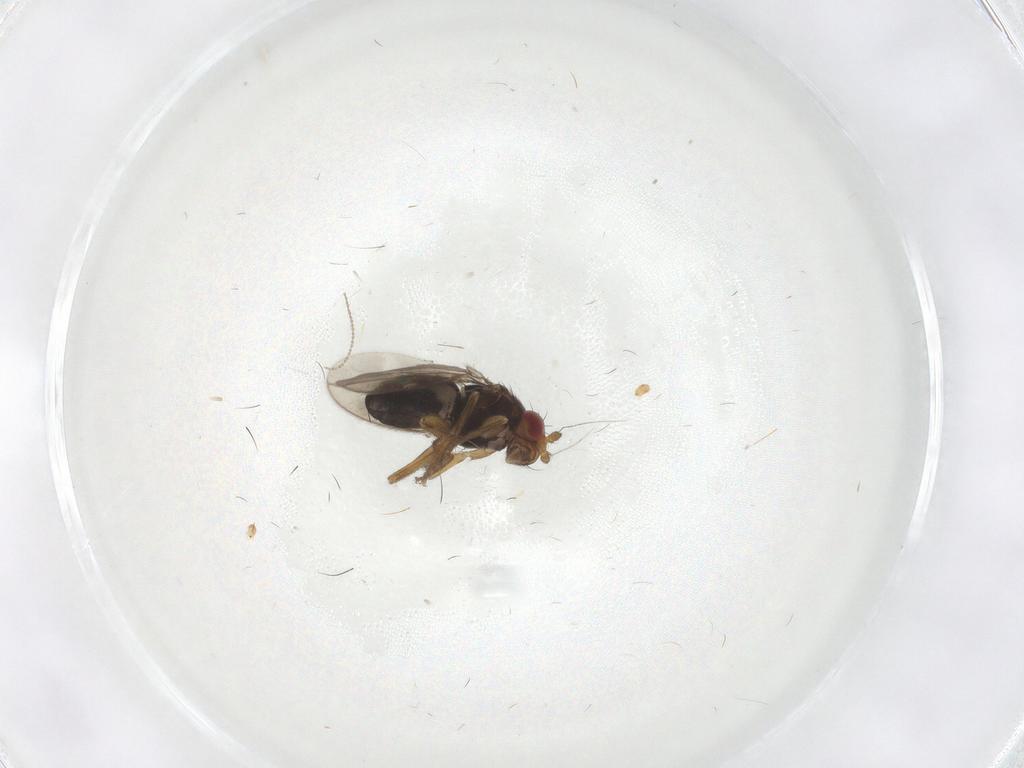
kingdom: Animalia
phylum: Arthropoda
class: Insecta
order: Diptera
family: Sphaeroceridae
